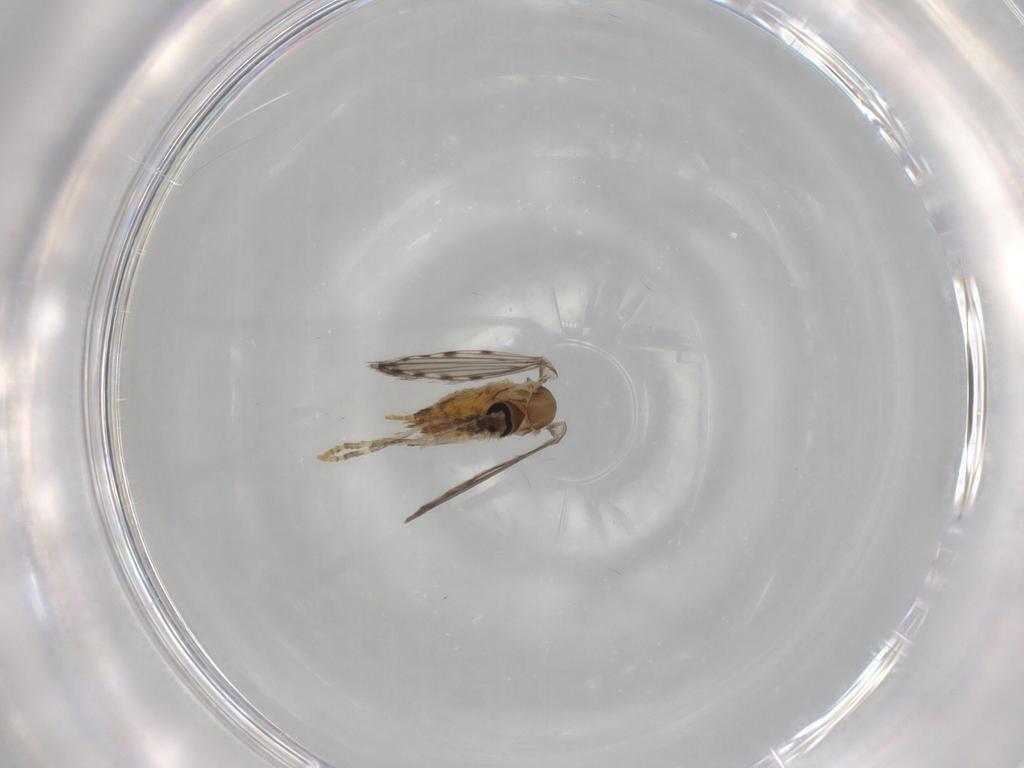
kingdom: Animalia
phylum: Arthropoda
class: Insecta
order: Diptera
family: Psychodidae
